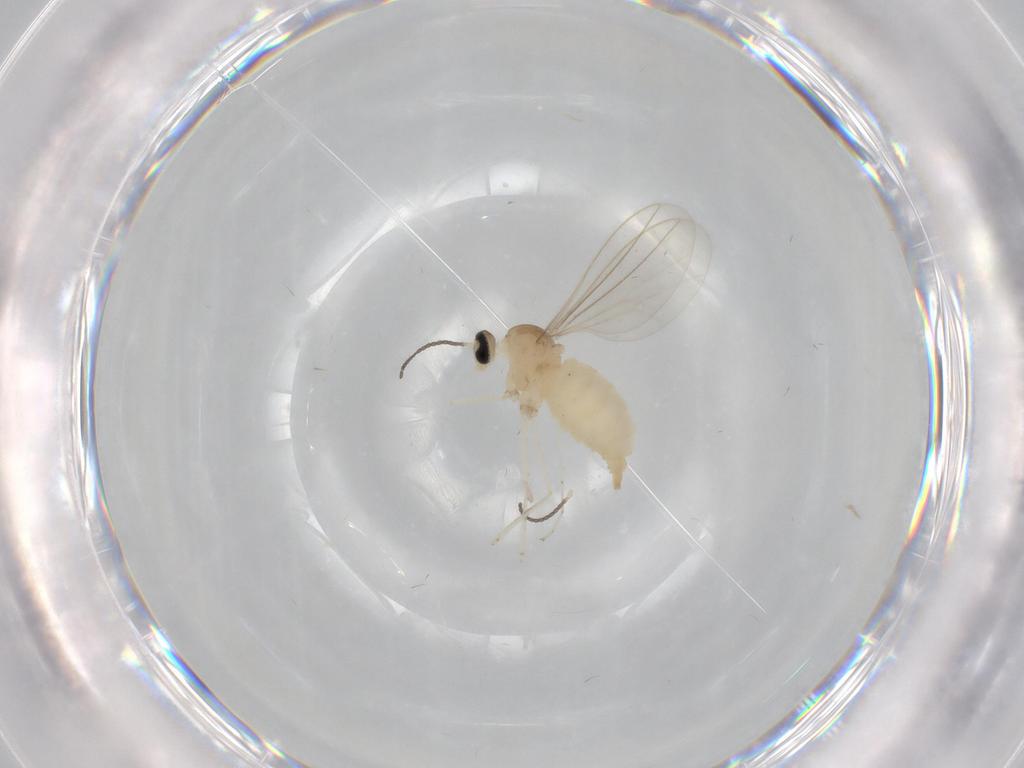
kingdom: Animalia
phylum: Arthropoda
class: Insecta
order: Diptera
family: Cecidomyiidae
